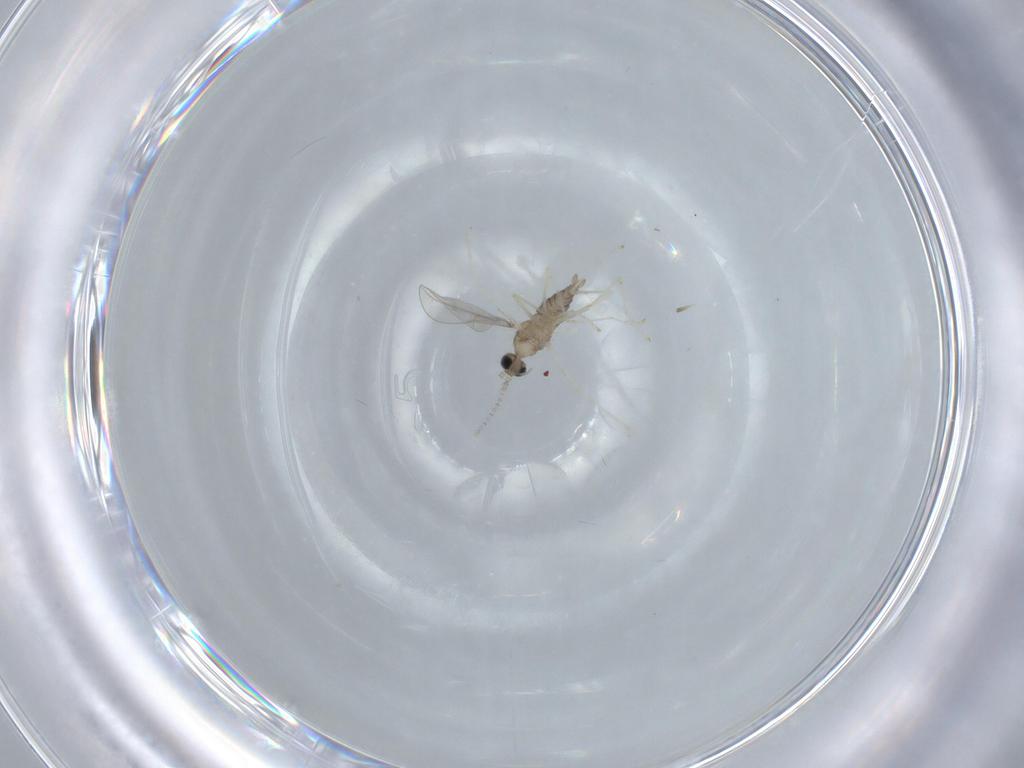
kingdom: Animalia
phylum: Arthropoda
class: Insecta
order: Diptera
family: Cecidomyiidae
